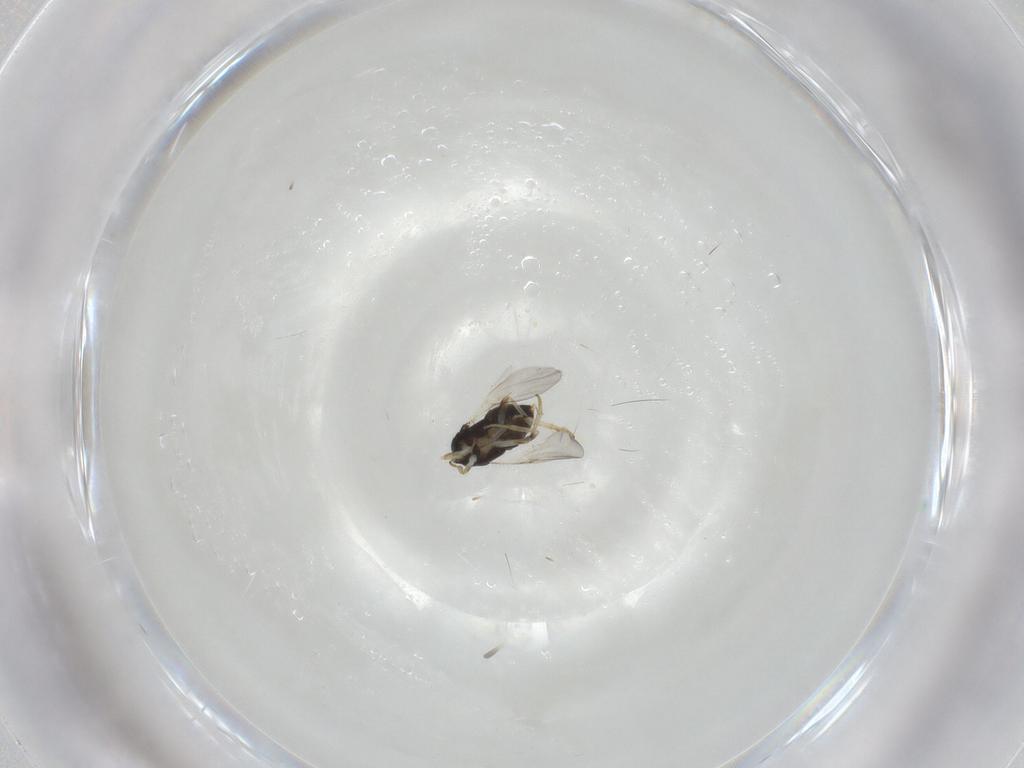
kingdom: Animalia
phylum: Arthropoda
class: Insecta
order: Hymenoptera
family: Encyrtidae
